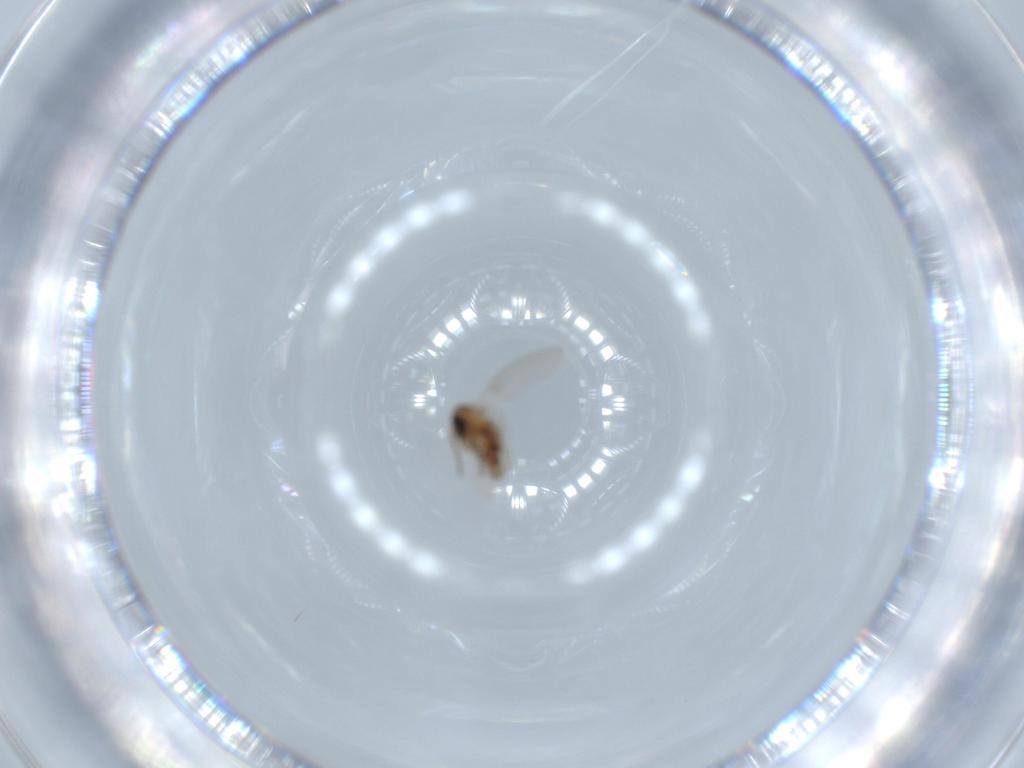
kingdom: Animalia
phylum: Arthropoda
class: Insecta
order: Diptera
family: Psychodidae
